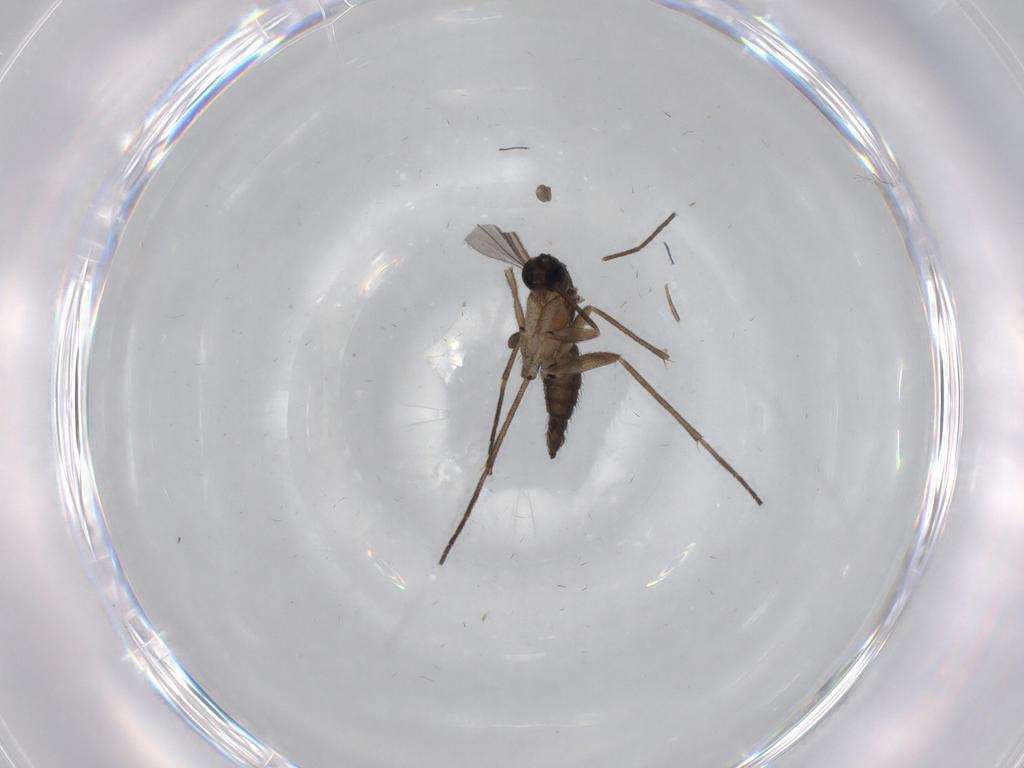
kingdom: Animalia
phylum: Arthropoda
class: Insecta
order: Diptera
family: Sciaridae
